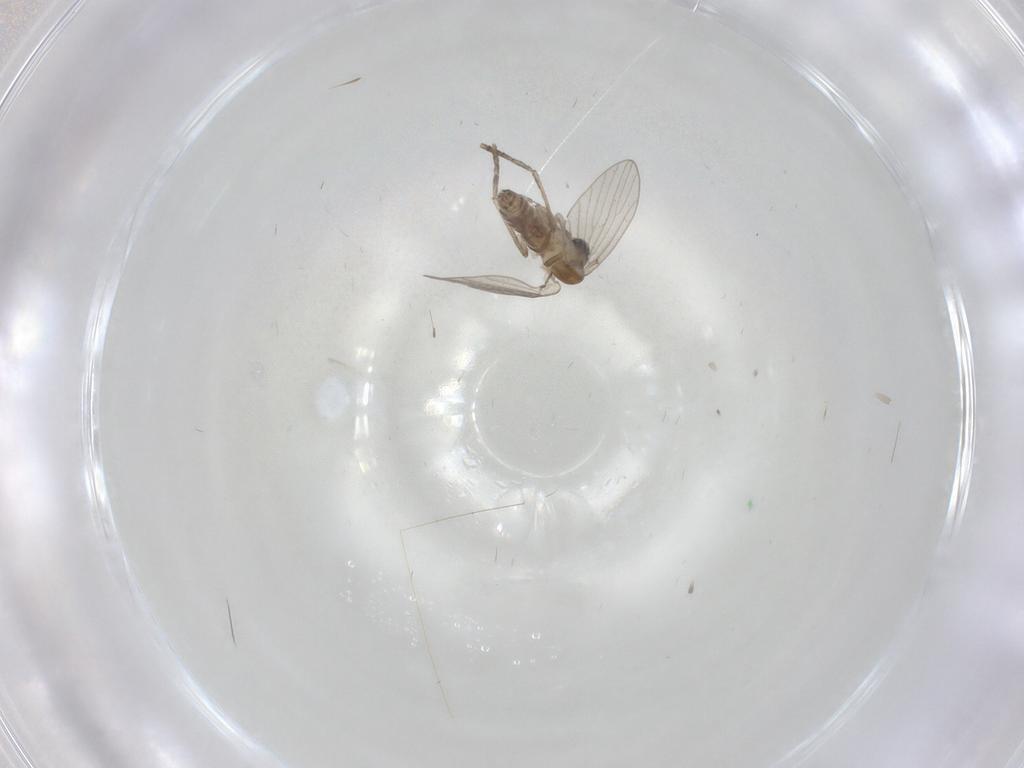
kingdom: Animalia
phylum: Arthropoda
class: Insecta
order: Diptera
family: Psychodidae
